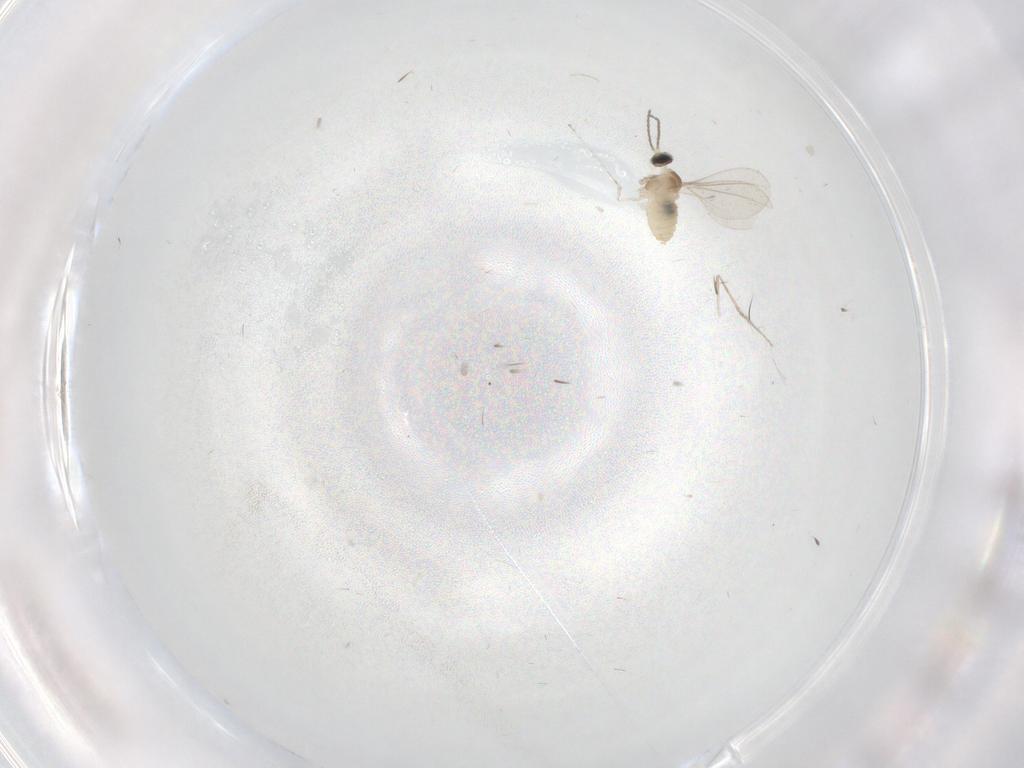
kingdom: Animalia
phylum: Arthropoda
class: Insecta
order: Diptera
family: Cecidomyiidae
